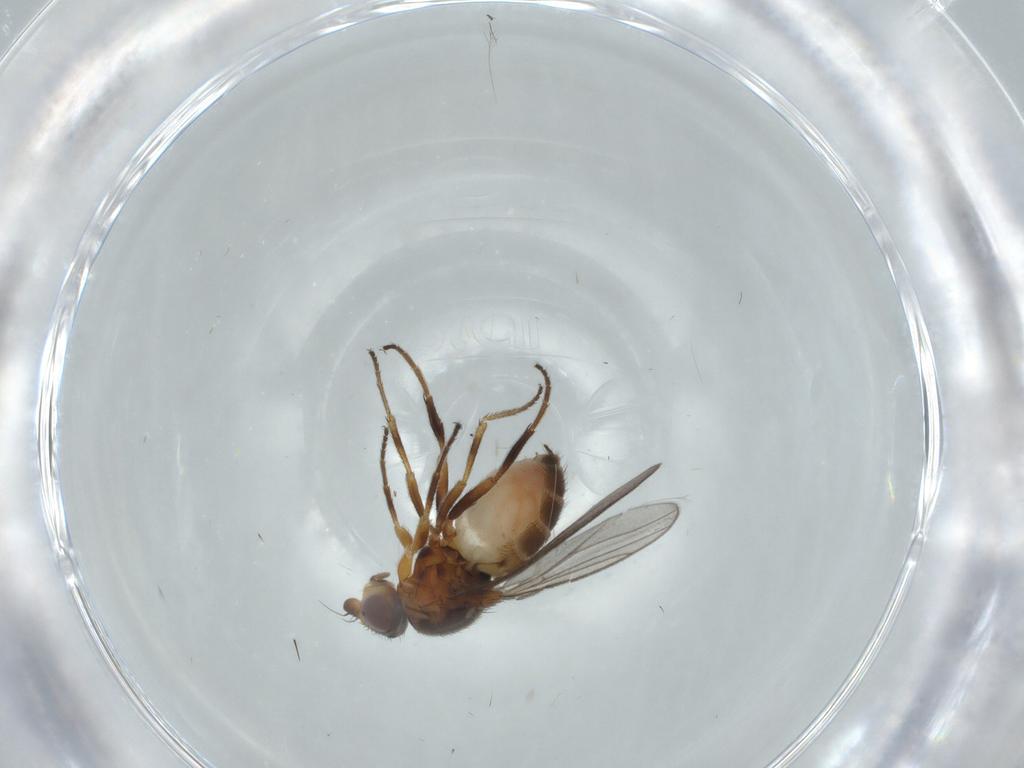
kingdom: Animalia
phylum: Arthropoda
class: Insecta
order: Diptera
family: Chloropidae
